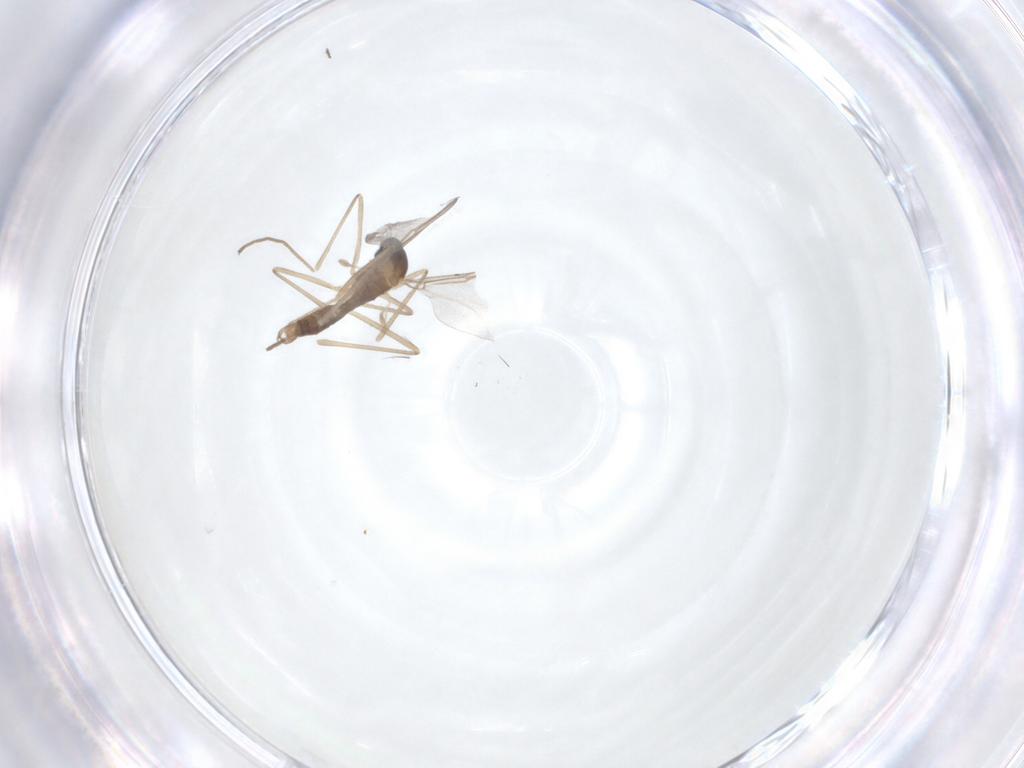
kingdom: Animalia
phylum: Arthropoda
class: Insecta
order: Diptera
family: Cecidomyiidae
